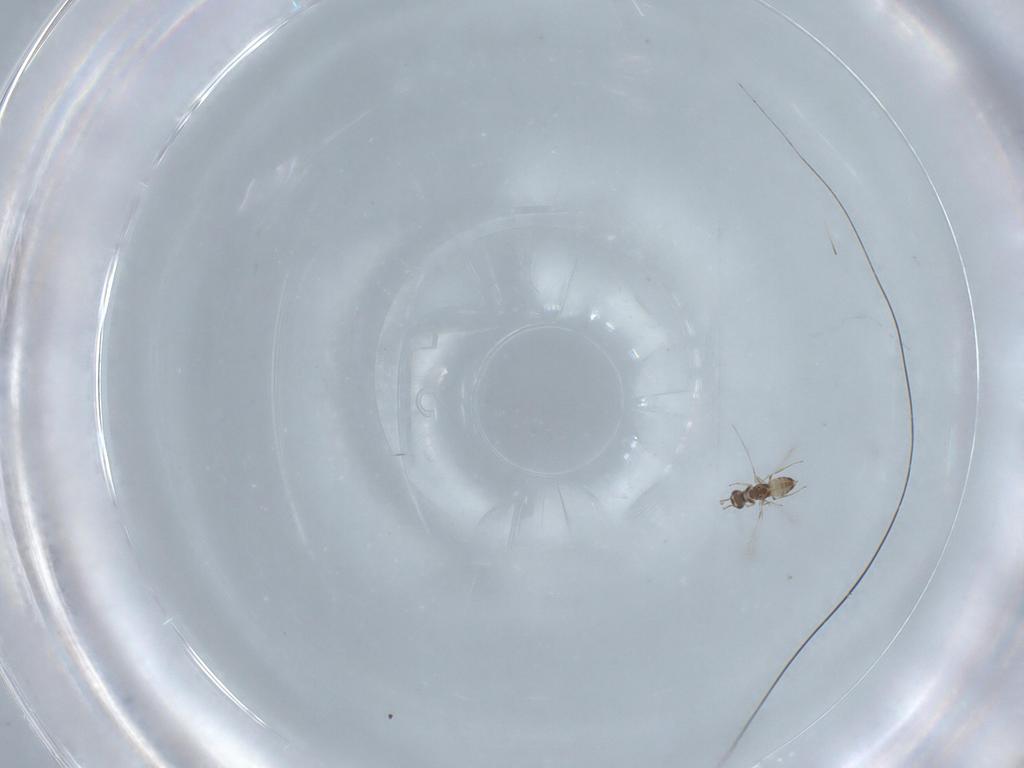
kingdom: Animalia
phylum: Arthropoda
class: Insecta
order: Hymenoptera
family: Mymaridae
